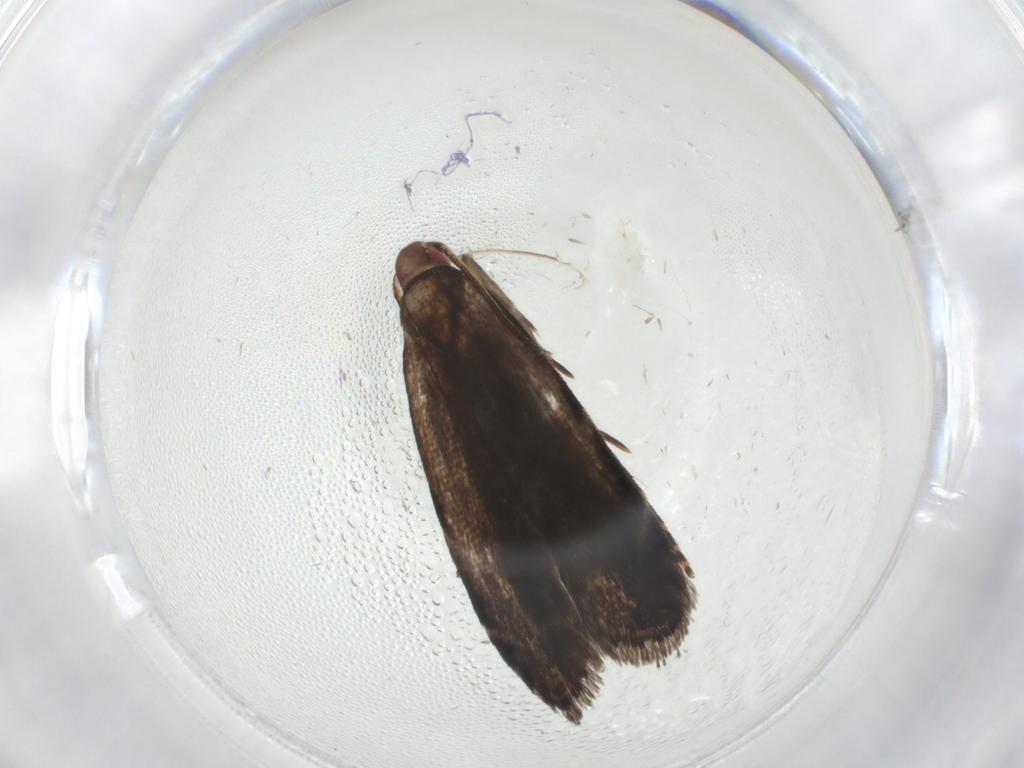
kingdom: Animalia
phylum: Arthropoda
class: Insecta
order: Lepidoptera
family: Gelechiidae
